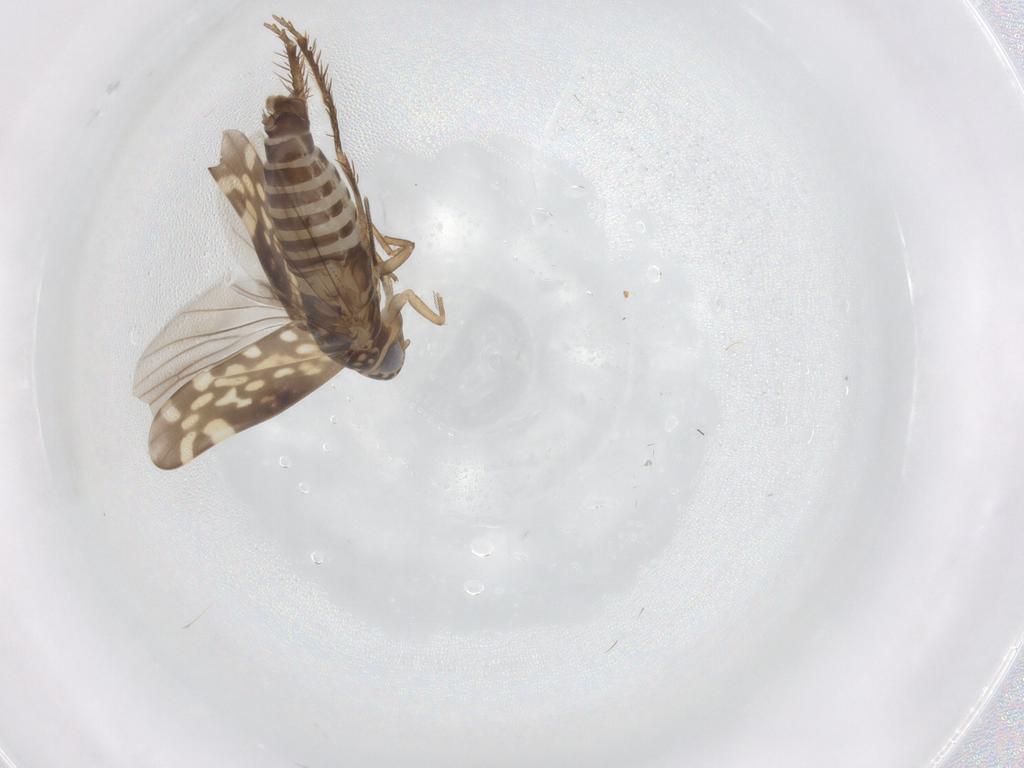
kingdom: Animalia
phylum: Arthropoda
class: Insecta
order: Hemiptera
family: Cicadellidae
